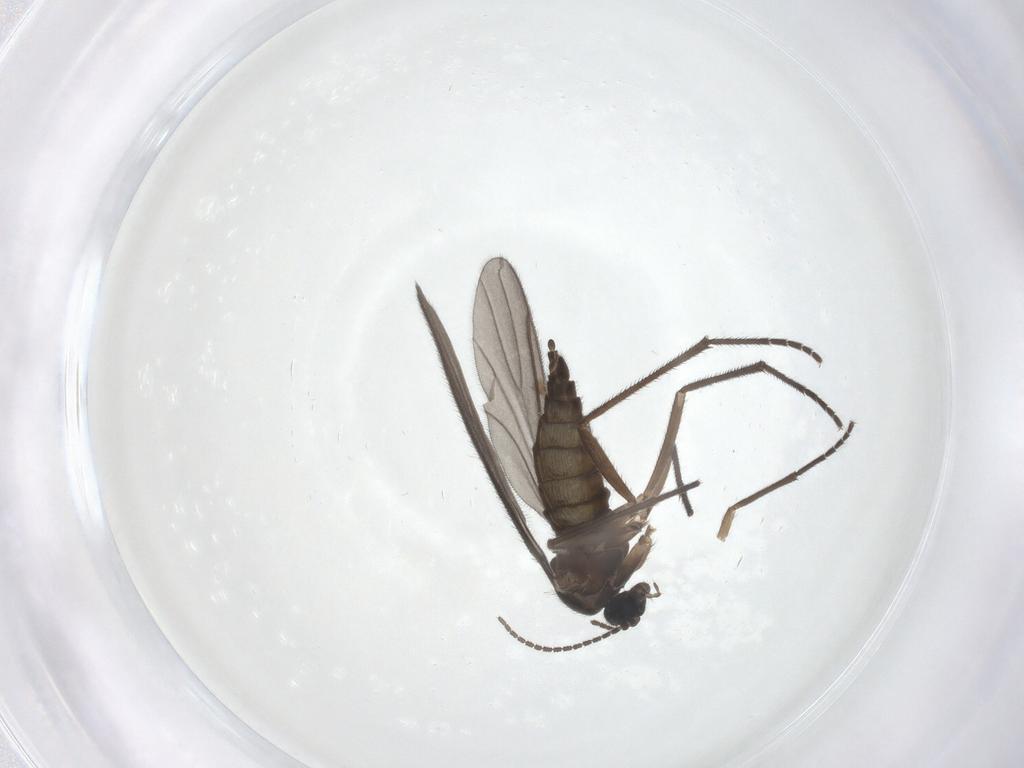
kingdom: Animalia
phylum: Arthropoda
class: Insecta
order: Diptera
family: Sciaridae
